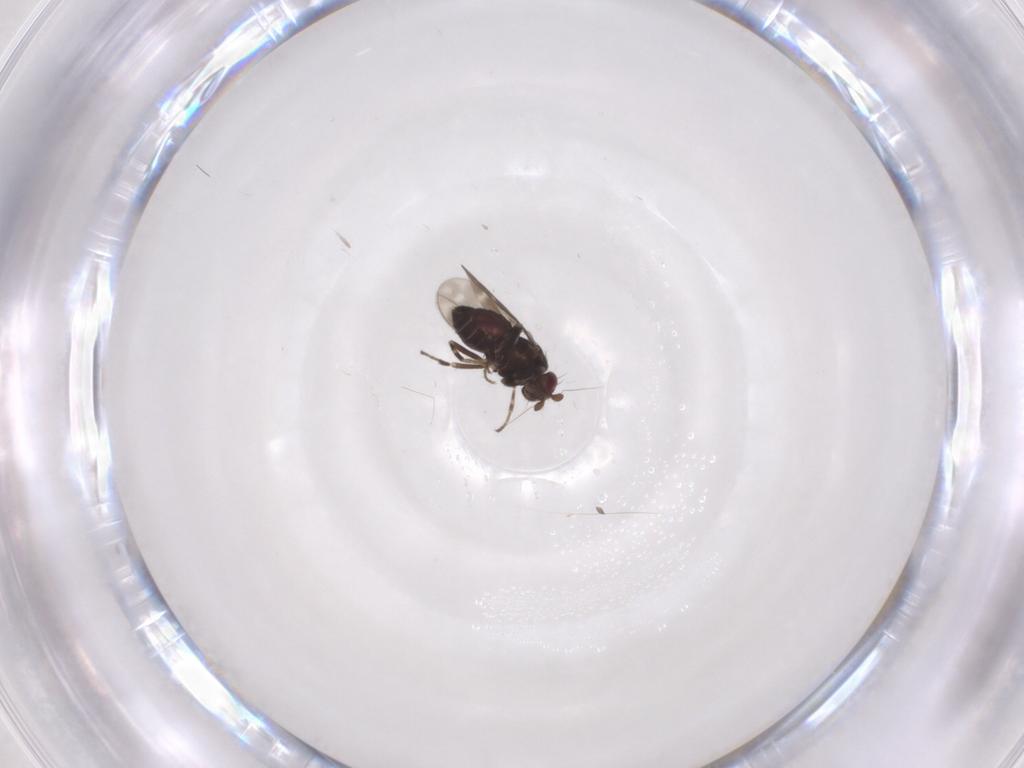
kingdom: Animalia
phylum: Arthropoda
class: Insecta
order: Diptera
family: Sphaeroceridae
